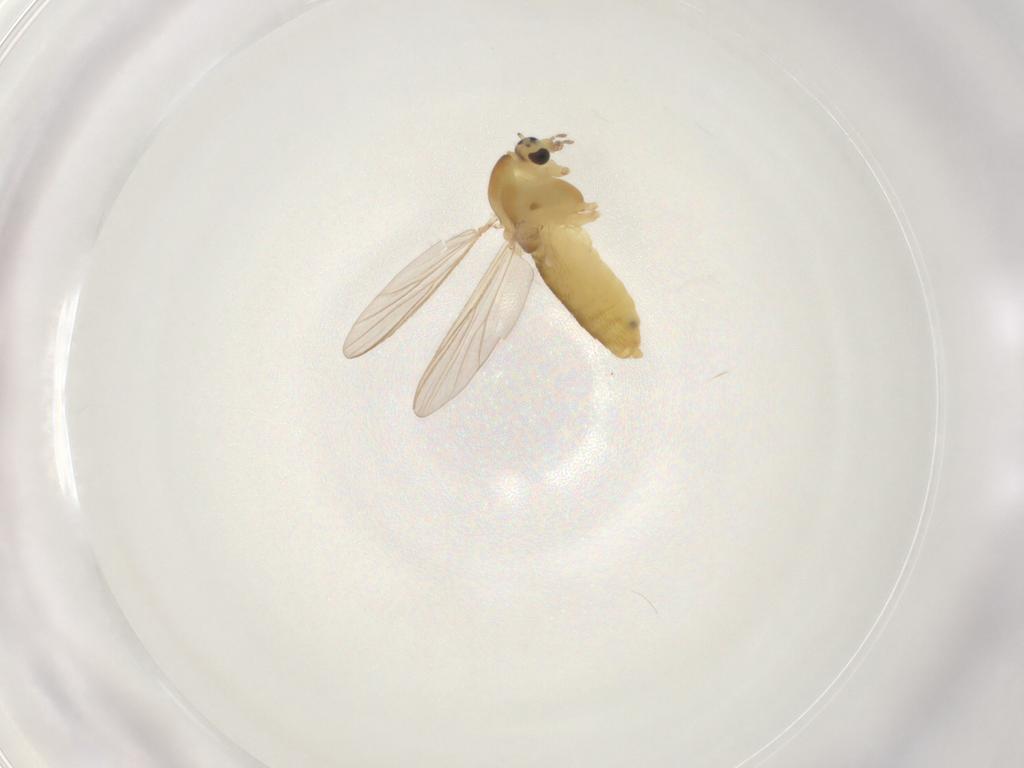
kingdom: Animalia
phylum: Arthropoda
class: Insecta
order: Diptera
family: Chironomidae
